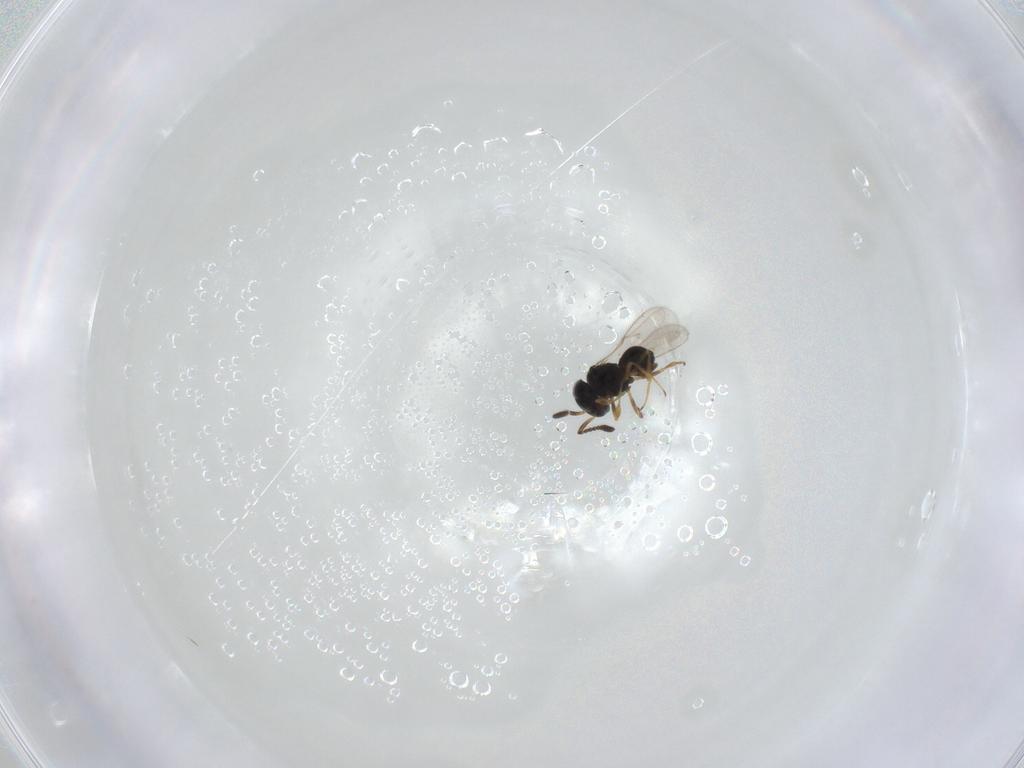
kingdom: Animalia
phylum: Arthropoda
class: Insecta
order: Hymenoptera
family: Scelionidae
